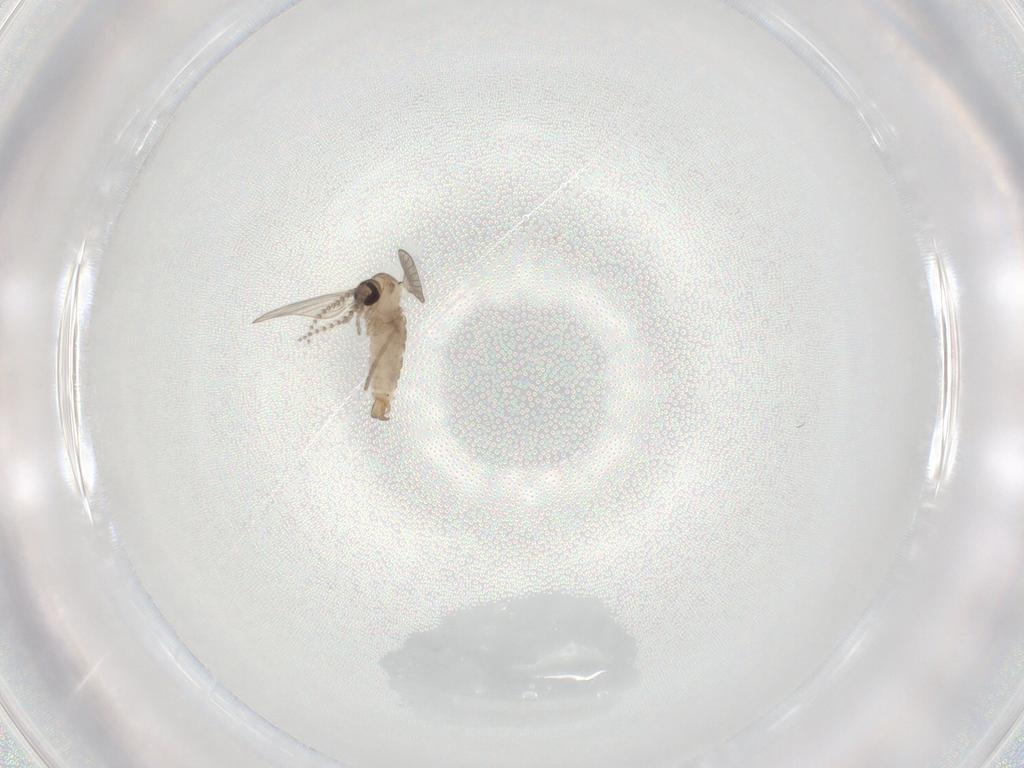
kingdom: Animalia
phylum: Arthropoda
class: Insecta
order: Diptera
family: Psychodidae
